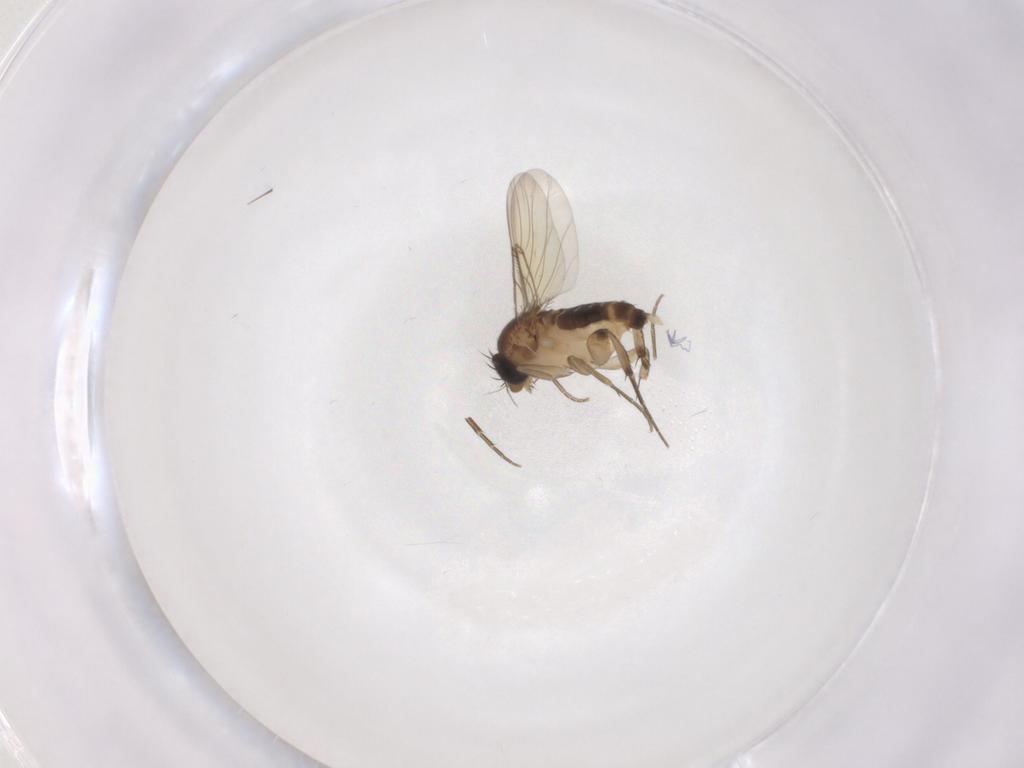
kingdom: Animalia
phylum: Arthropoda
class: Insecta
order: Diptera
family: Phoridae
